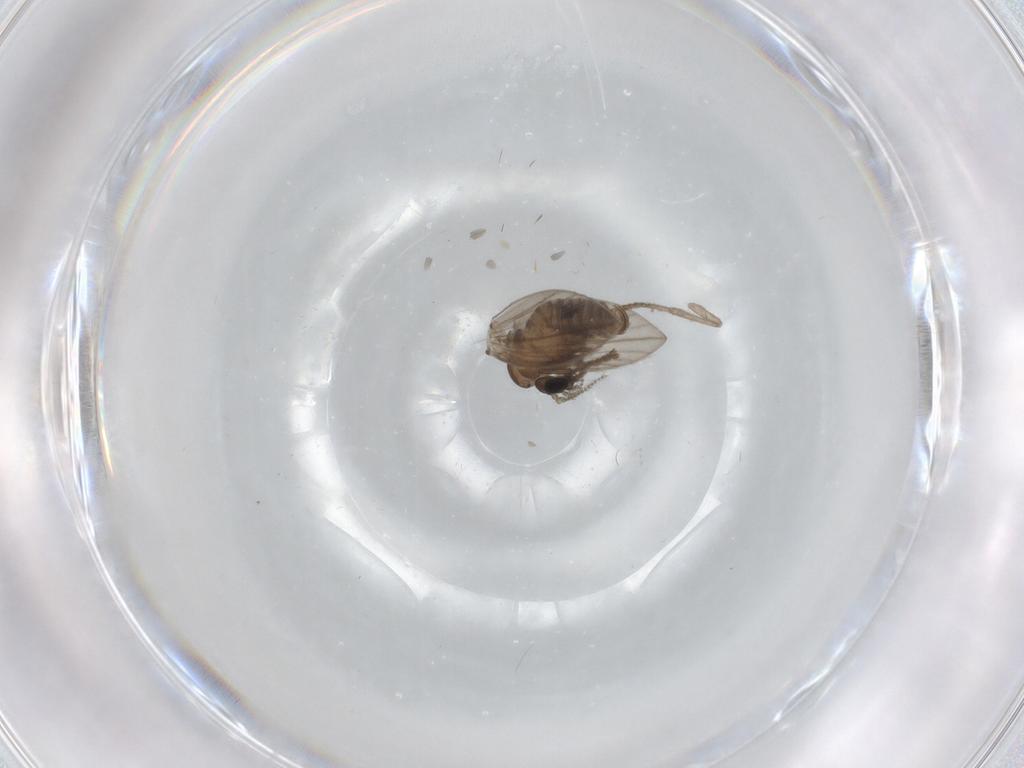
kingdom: Animalia
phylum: Arthropoda
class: Insecta
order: Diptera
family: Psychodidae
